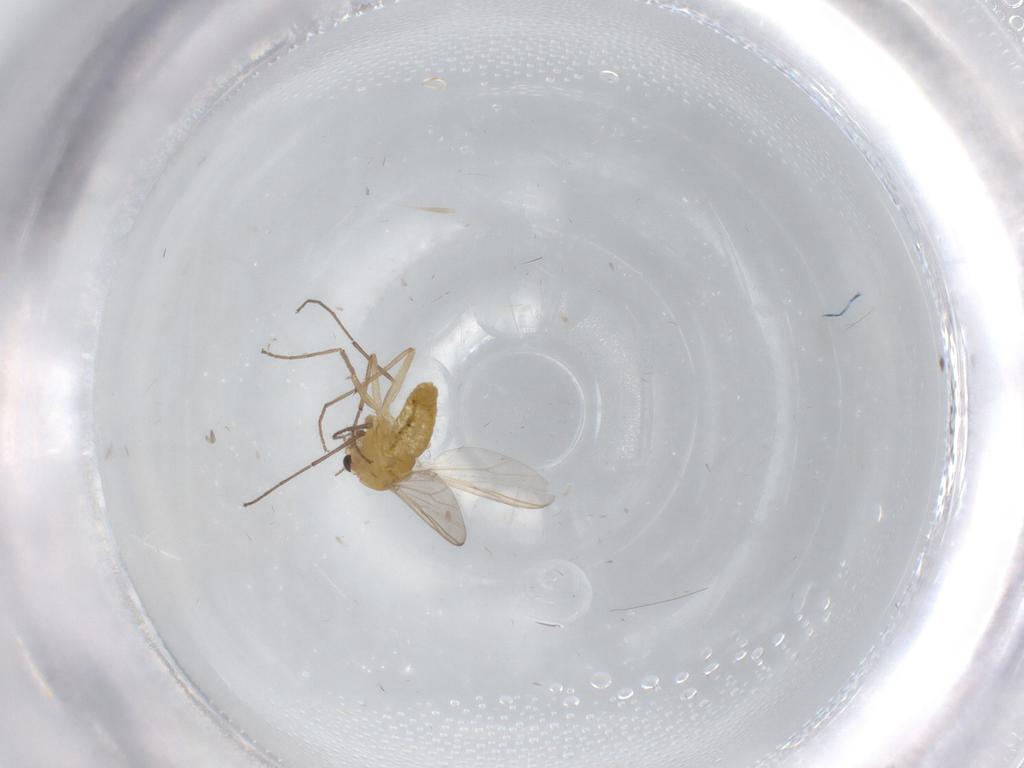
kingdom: Animalia
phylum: Arthropoda
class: Insecta
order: Diptera
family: Chironomidae
